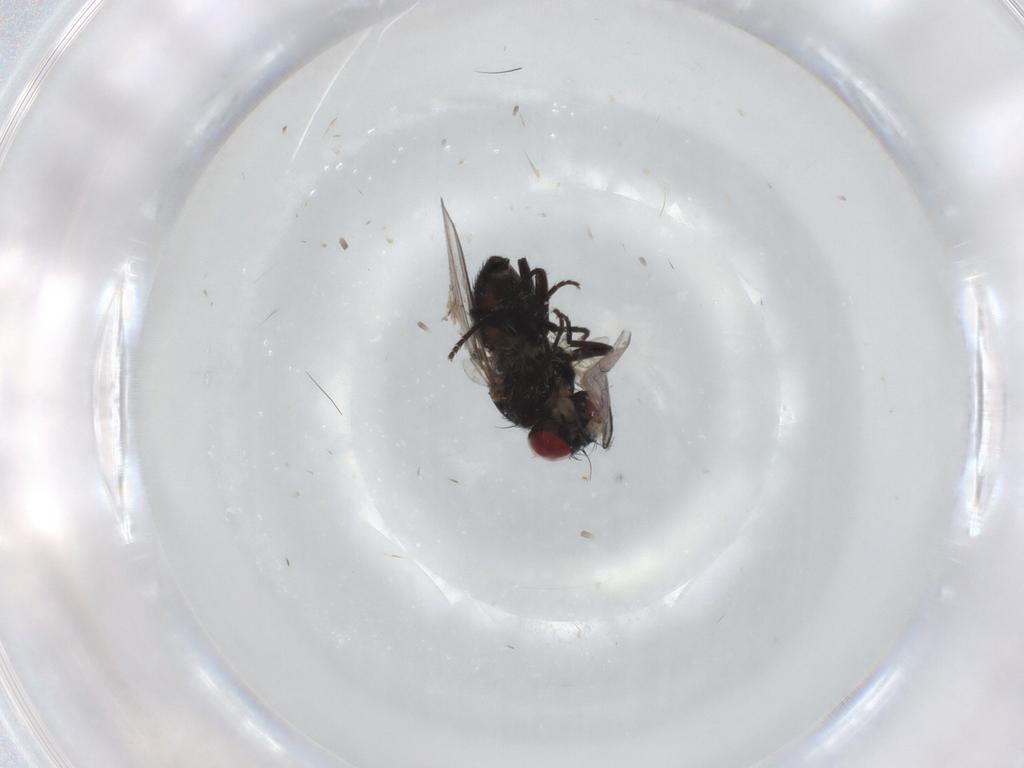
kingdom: Animalia
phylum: Arthropoda
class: Insecta
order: Diptera
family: Agromyzidae
